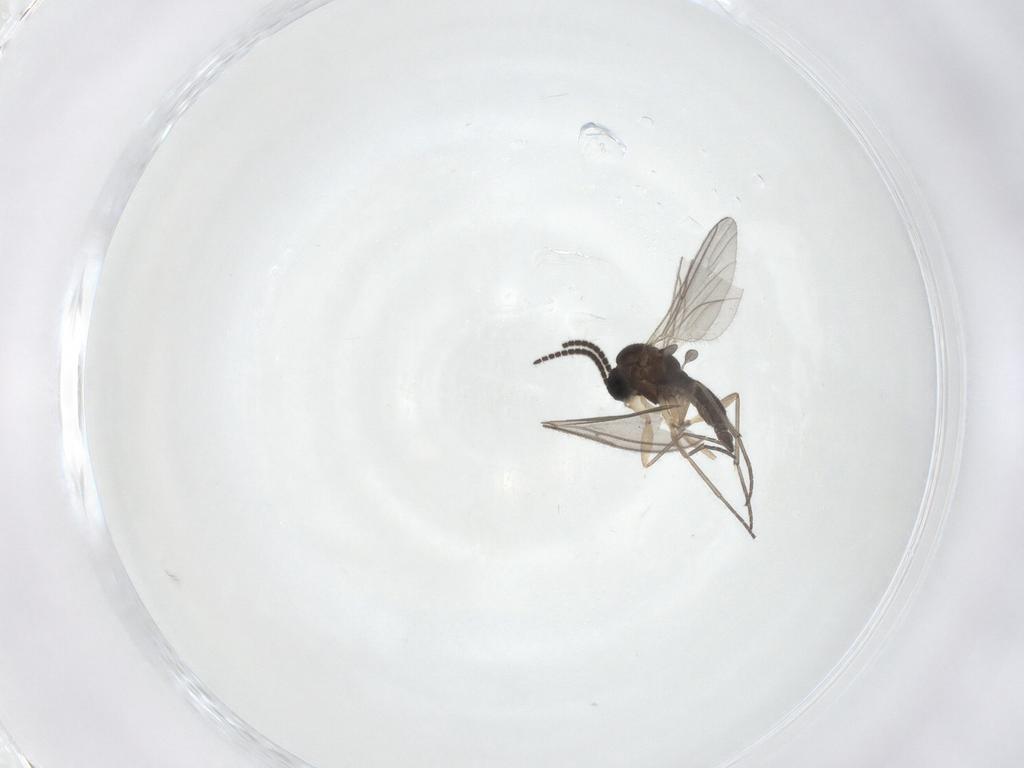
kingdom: Animalia
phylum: Arthropoda
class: Insecta
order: Diptera
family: Sciaridae
